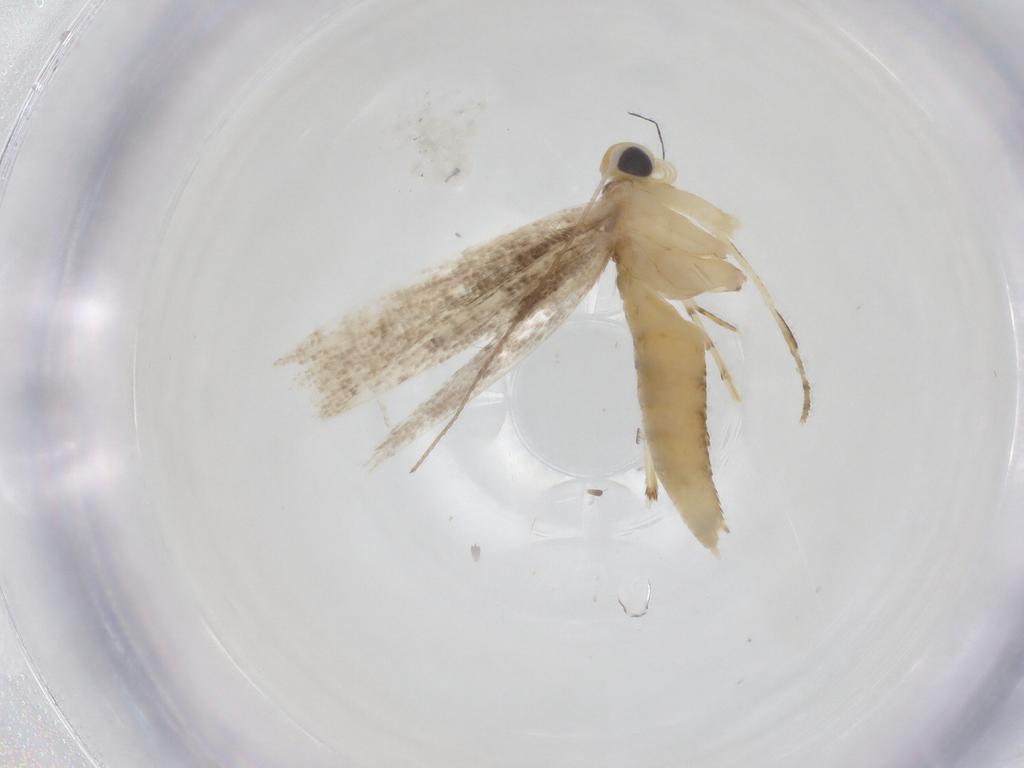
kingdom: Animalia
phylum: Arthropoda
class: Insecta
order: Lepidoptera
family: Argyresthiidae
